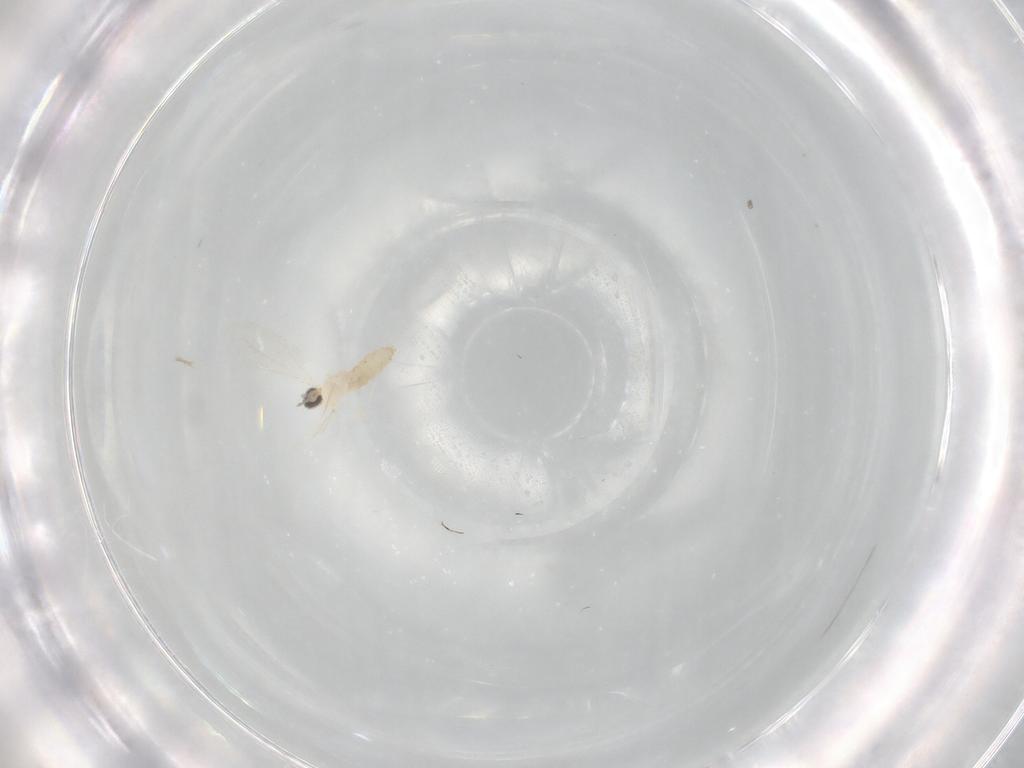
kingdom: Animalia
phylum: Arthropoda
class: Insecta
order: Diptera
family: Cecidomyiidae
